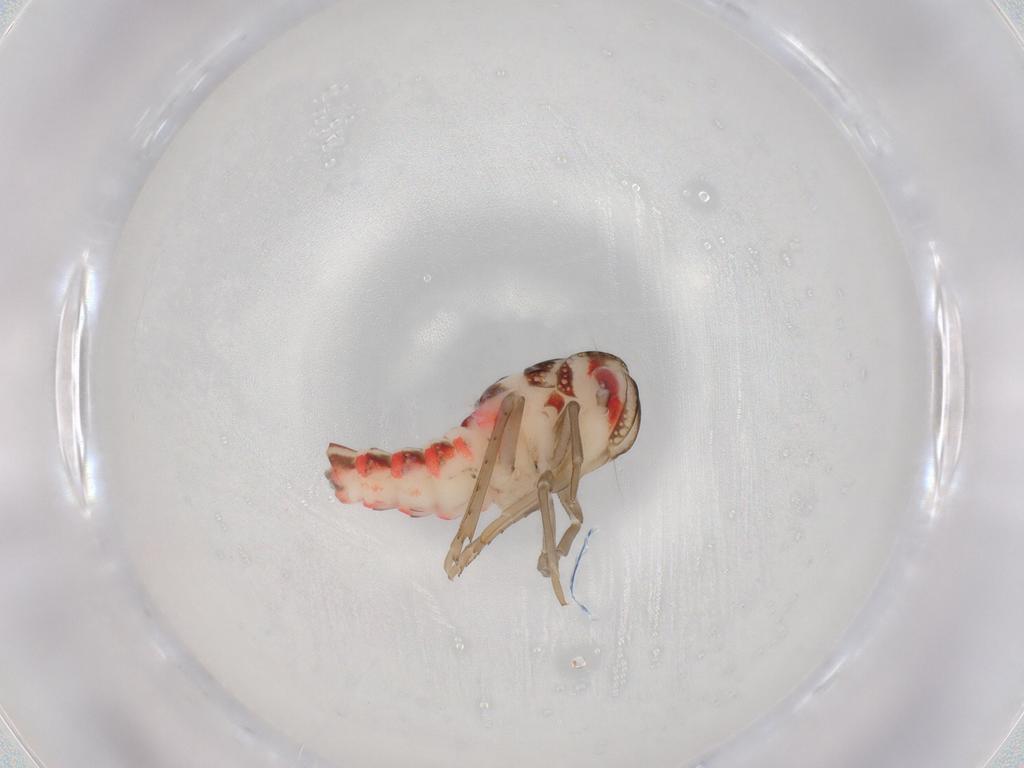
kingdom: Animalia
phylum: Arthropoda
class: Insecta
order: Hemiptera
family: Nogodinidae
